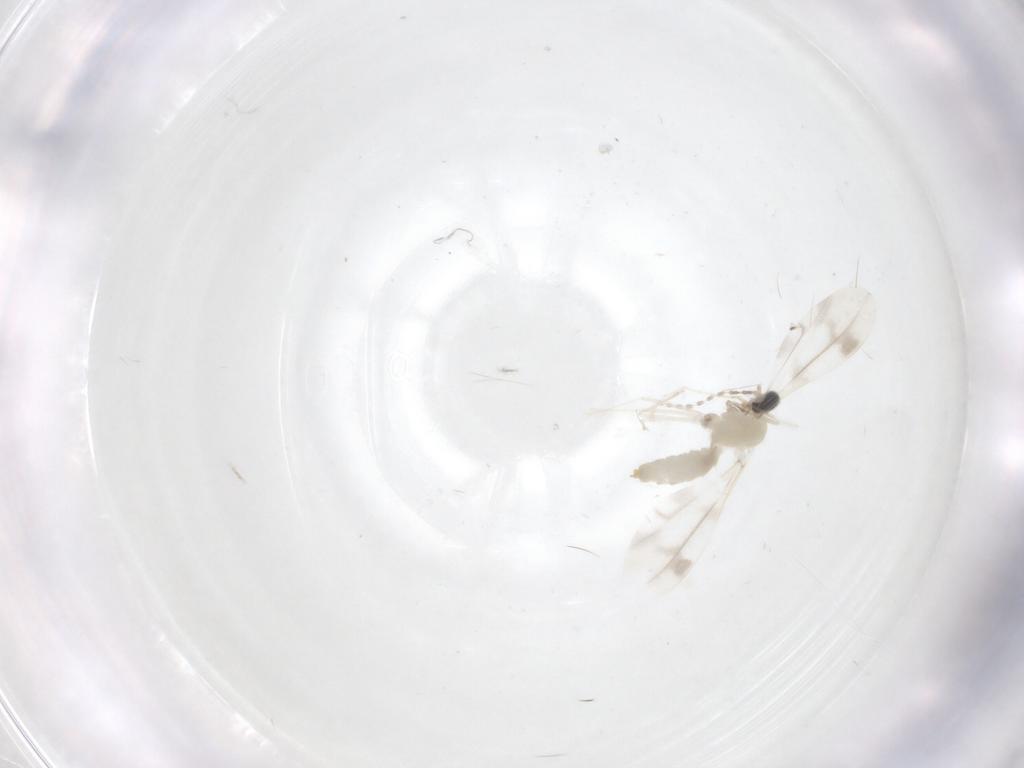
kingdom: Animalia
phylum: Arthropoda
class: Insecta
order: Diptera
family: Cecidomyiidae
